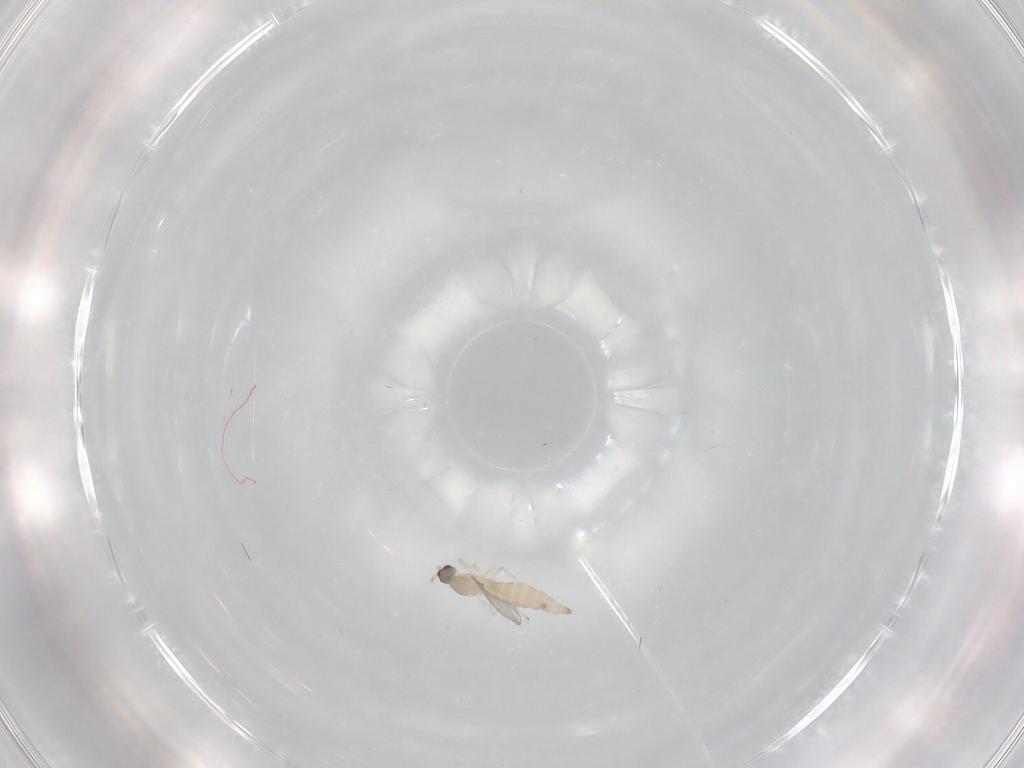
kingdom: Animalia
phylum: Arthropoda
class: Insecta
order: Diptera
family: Cecidomyiidae
